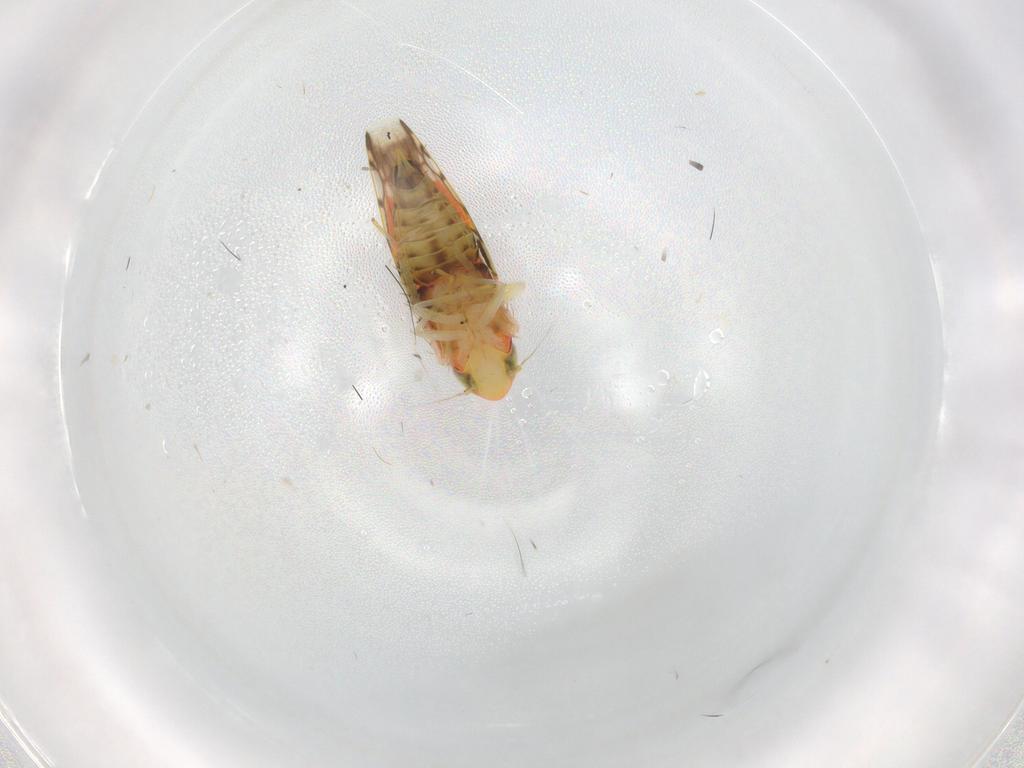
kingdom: Animalia
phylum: Arthropoda
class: Insecta
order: Hemiptera
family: Cicadellidae
